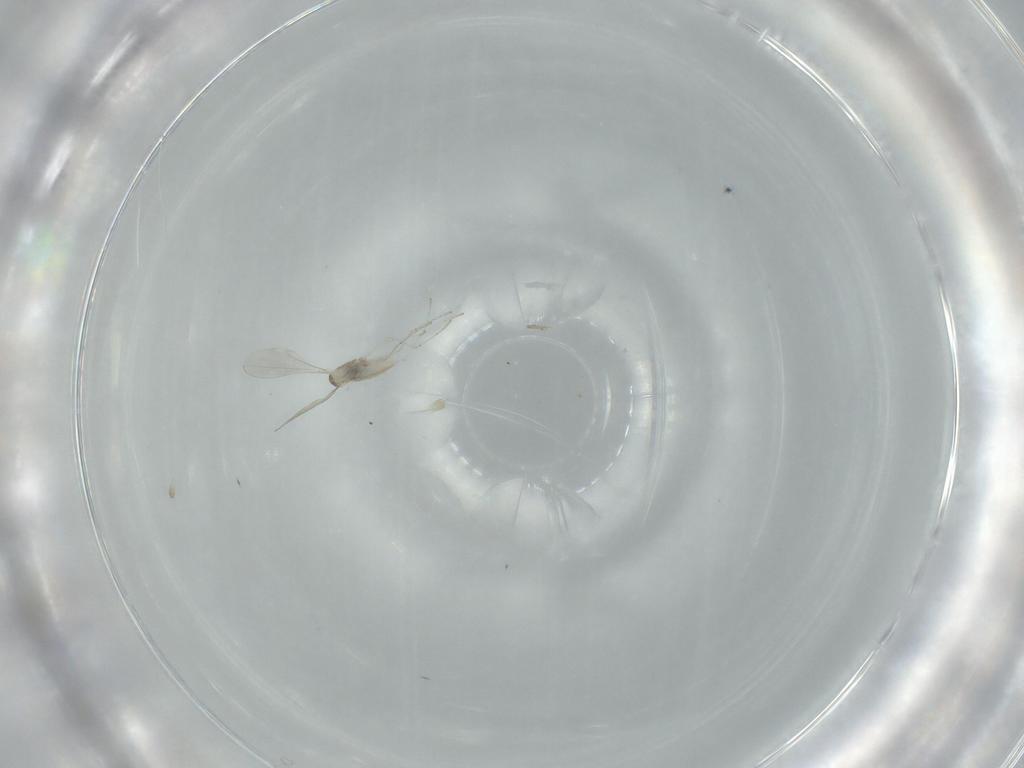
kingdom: Animalia
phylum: Arthropoda
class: Insecta
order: Diptera
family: Cecidomyiidae
